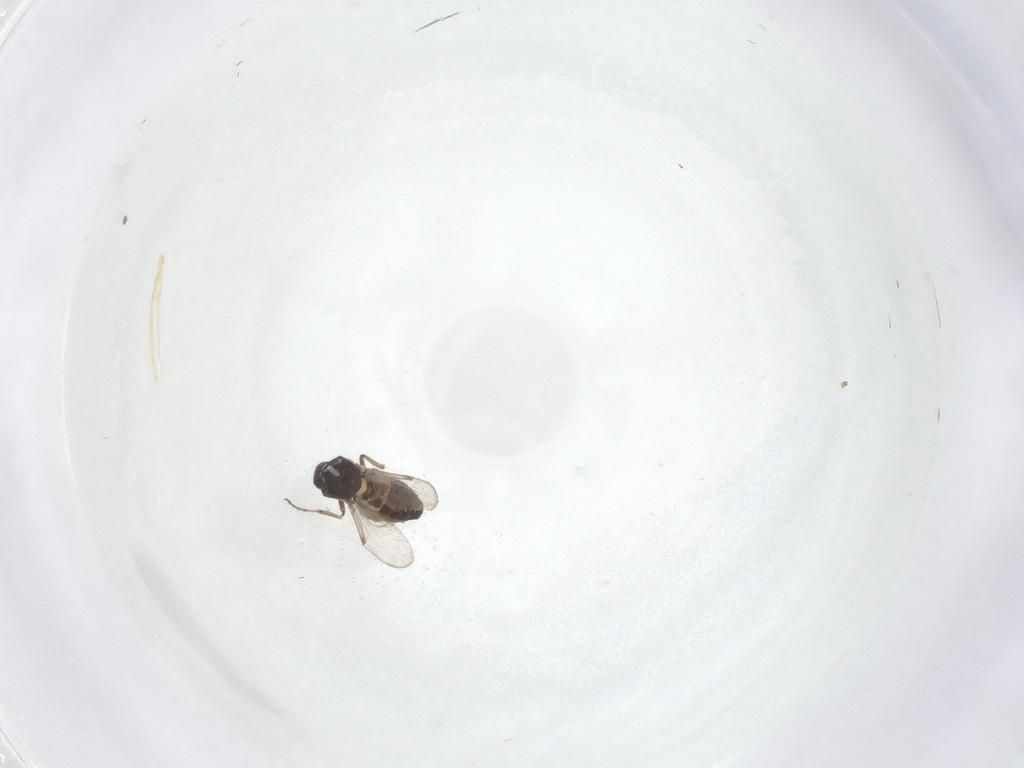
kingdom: Animalia
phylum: Arthropoda
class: Insecta
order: Diptera
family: Ceratopogonidae
